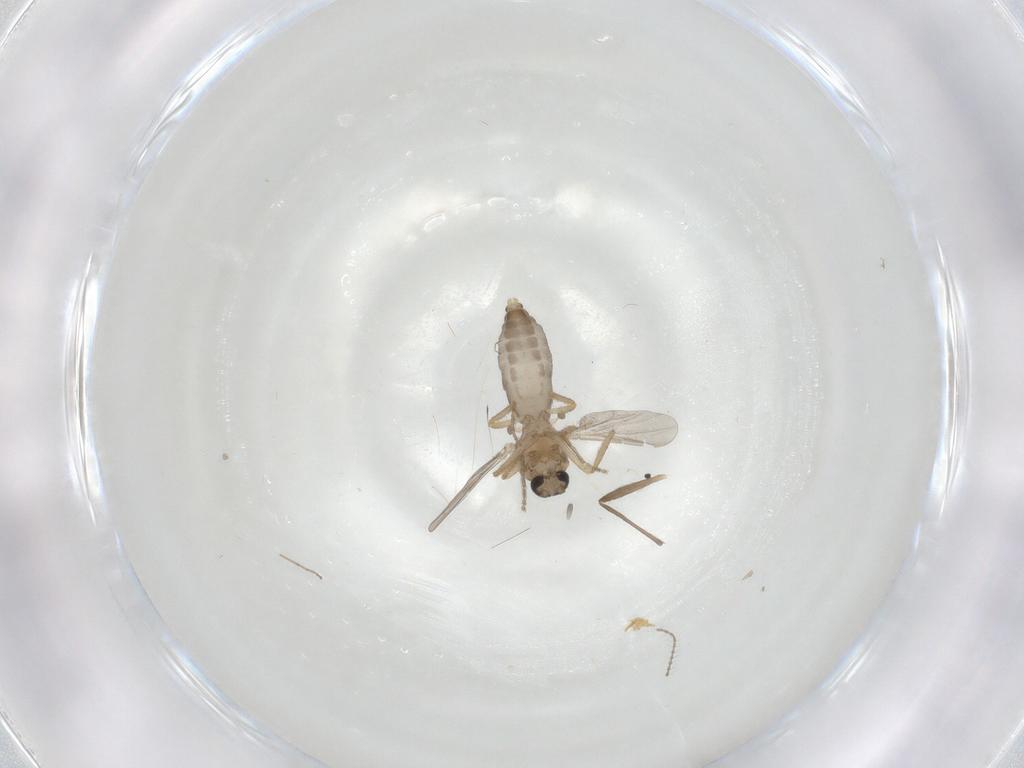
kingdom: Animalia
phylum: Arthropoda
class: Insecta
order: Diptera
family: Ceratopogonidae
